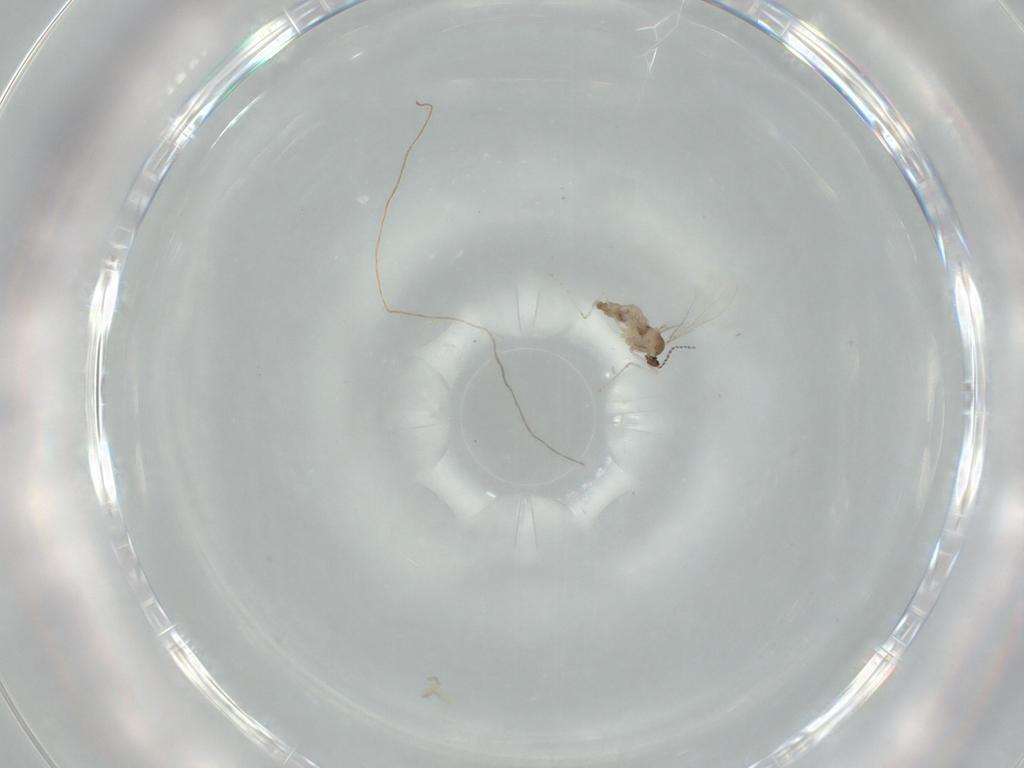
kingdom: Animalia
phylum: Arthropoda
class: Insecta
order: Diptera
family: Cecidomyiidae
